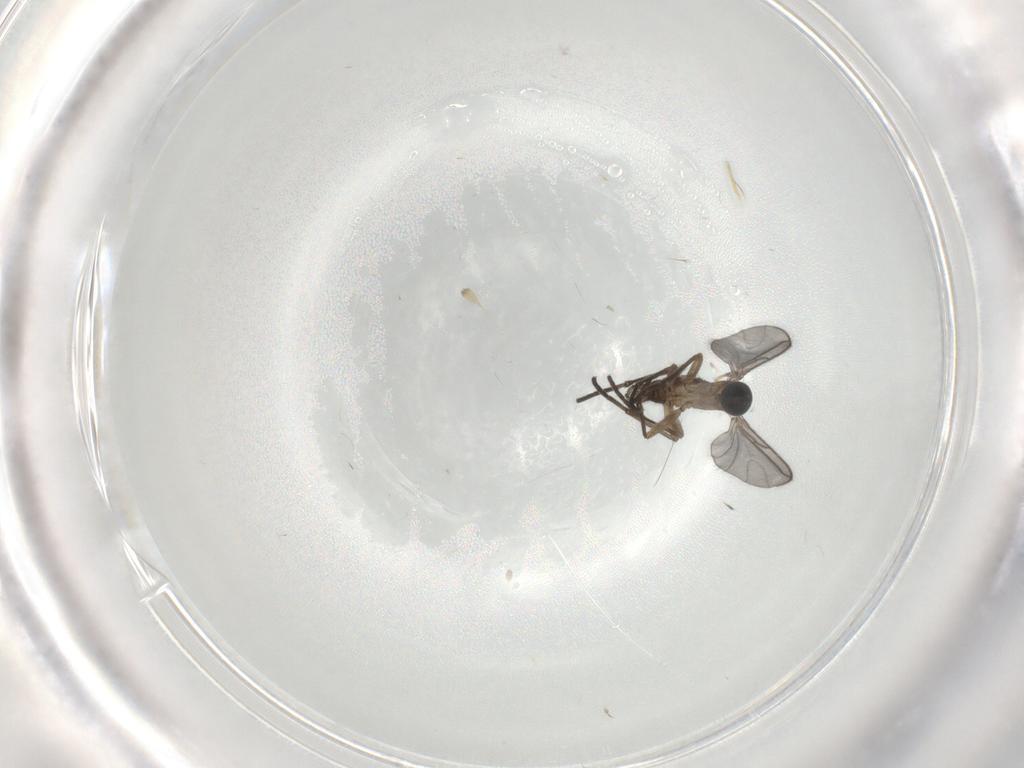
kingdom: Animalia
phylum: Arthropoda
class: Insecta
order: Diptera
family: Sciaridae
